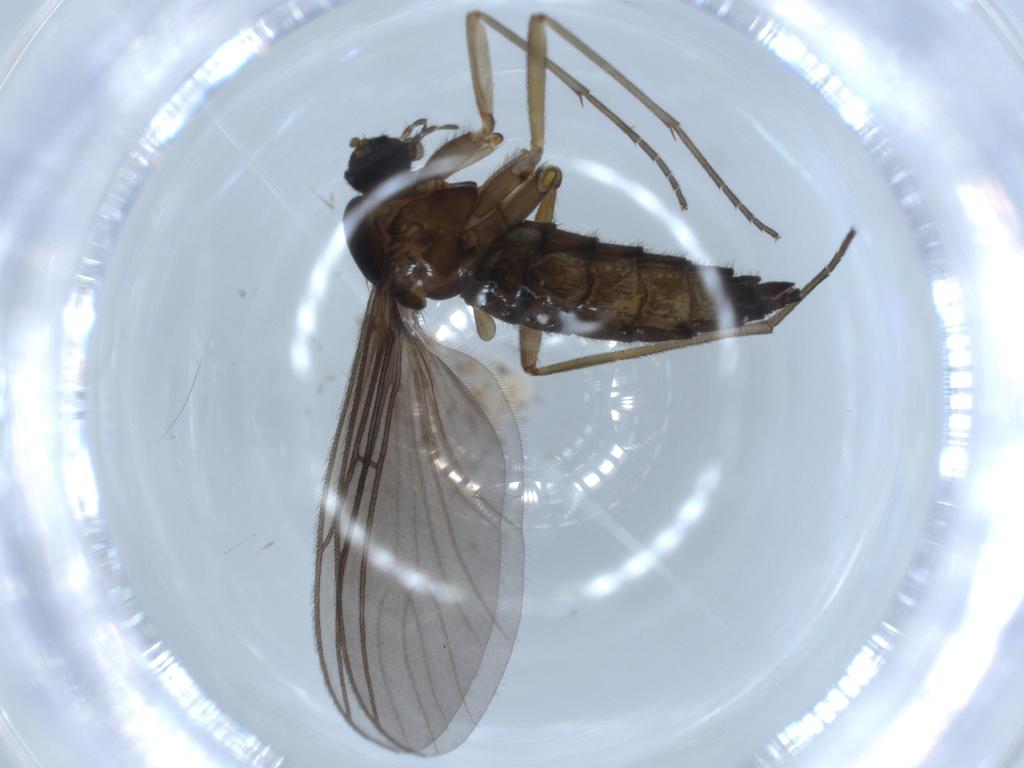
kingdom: Animalia
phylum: Arthropoda
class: Insecta
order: Diptera
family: Sciaridae
